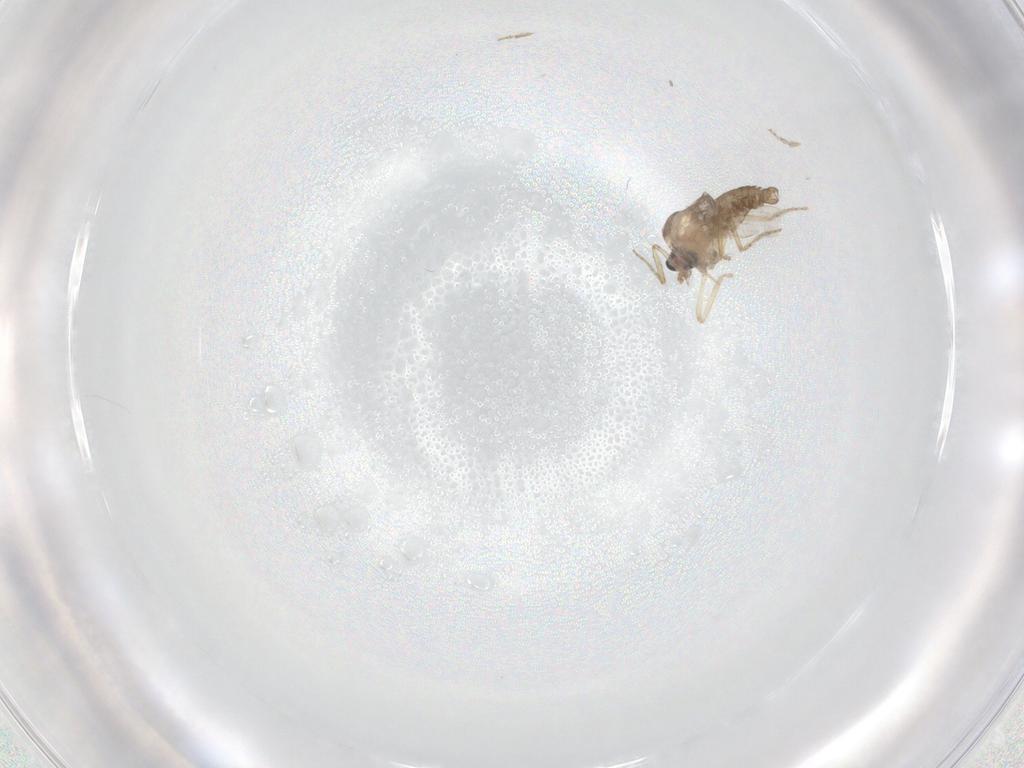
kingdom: Animalia
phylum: Arthropoda
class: Insecta
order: Diptera
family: Ceratopogonidae
